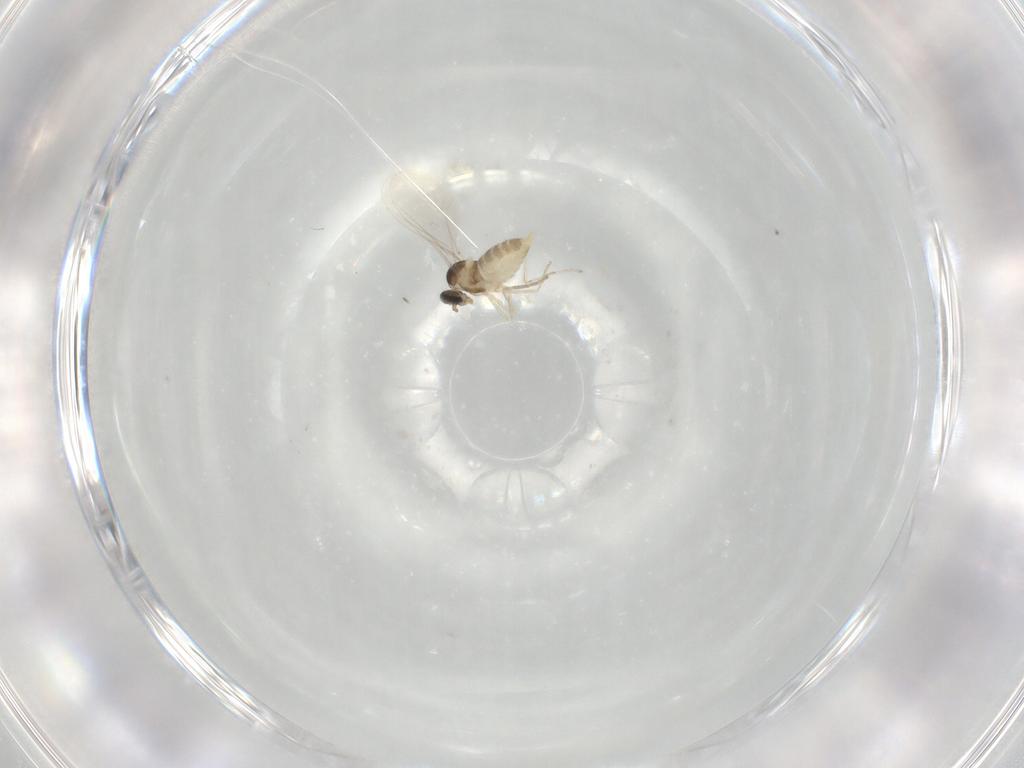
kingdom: Animalia
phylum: Arthropoda
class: Insecta
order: Diptera
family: Cecidomyiidae
